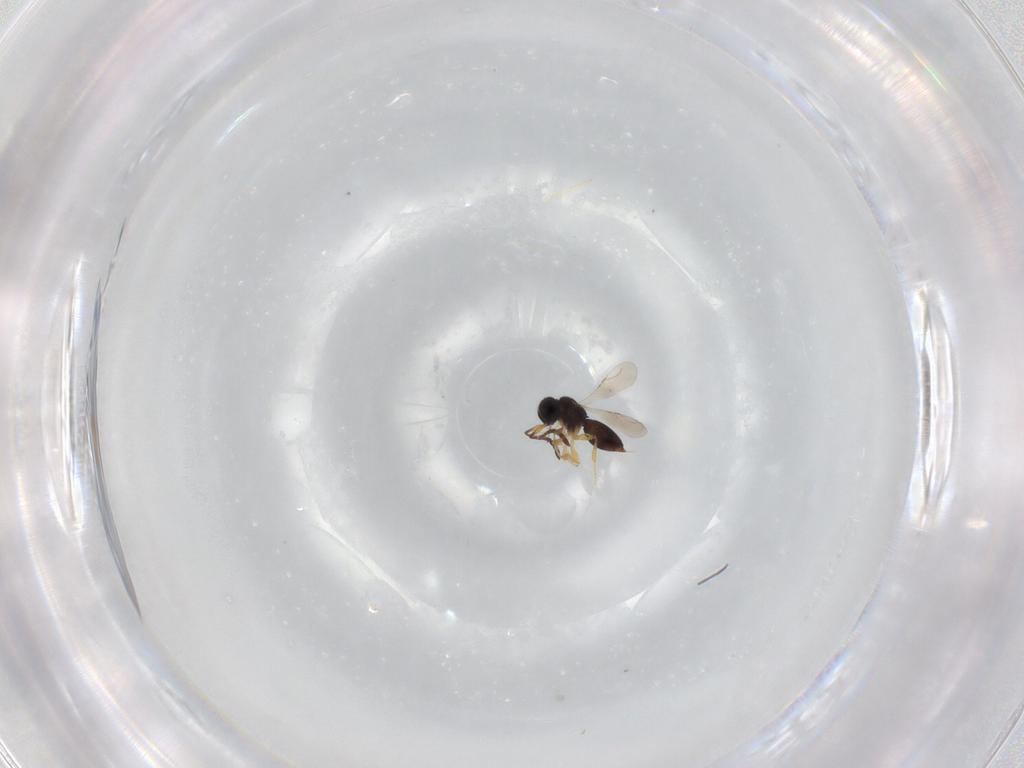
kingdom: Animalia
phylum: Arthropoda
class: Insecta
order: Hymenoptera
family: Ceraphronidae
